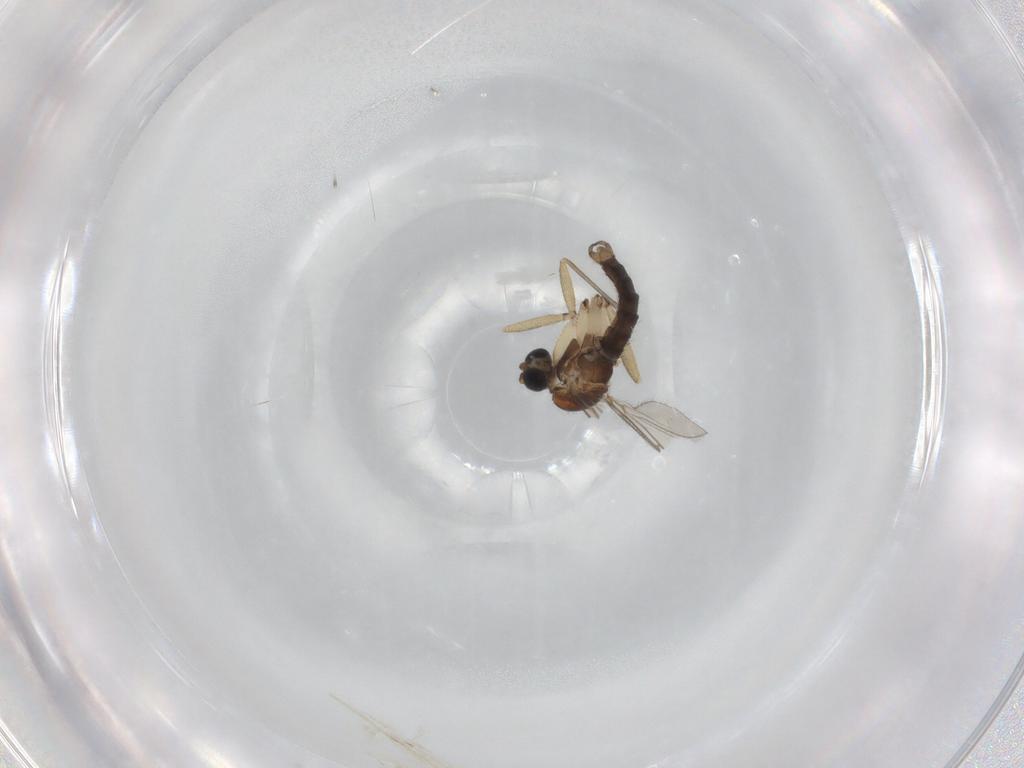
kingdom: Animalia
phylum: Arthropoda
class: Insecta
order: Diptera
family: Sciaridae
